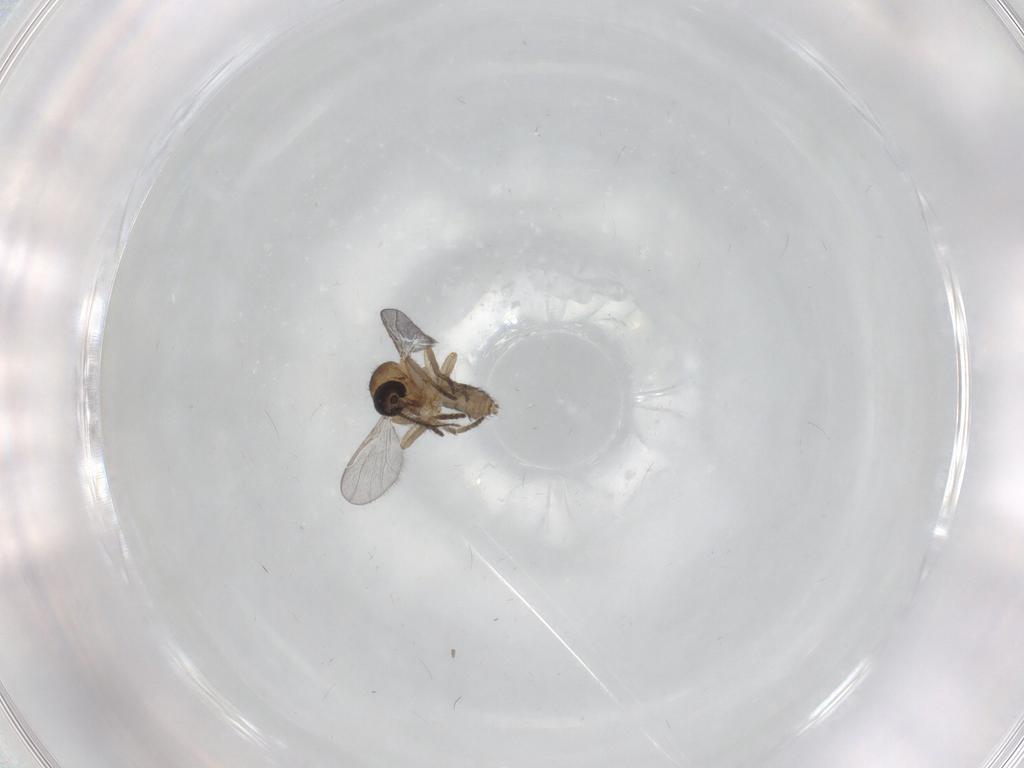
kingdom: Animalia
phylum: Arthropoda
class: Insecta
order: Diptera
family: Ceratopogonidae
